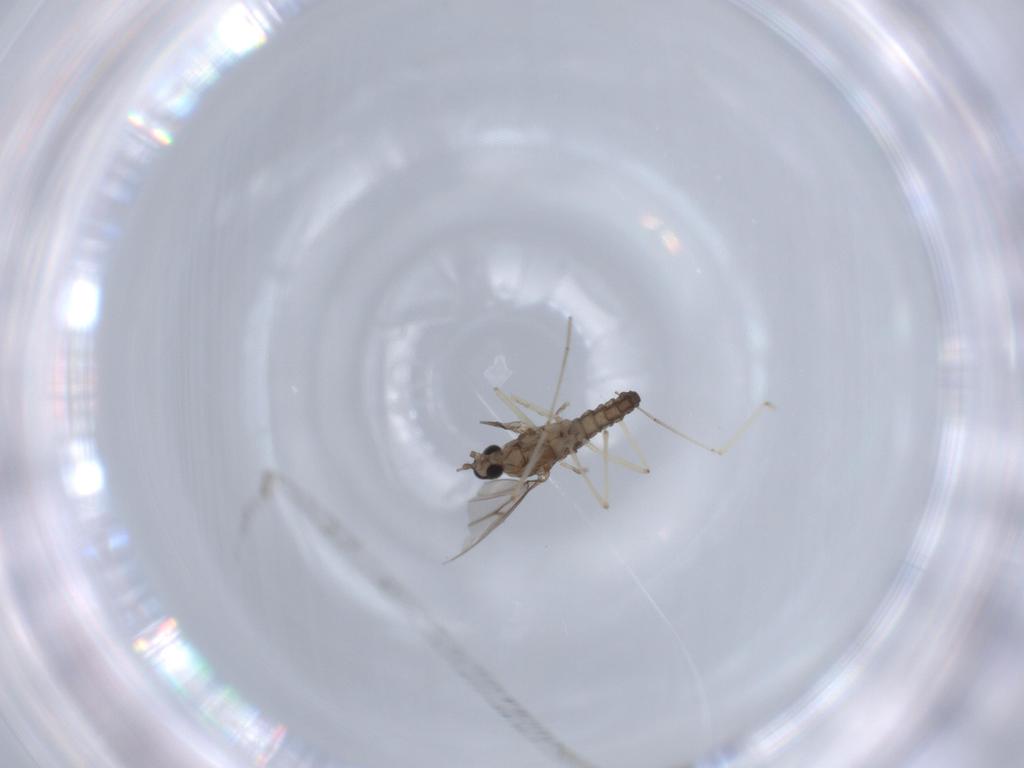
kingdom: Animalia
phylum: Arthropoda
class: Insecta
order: Diptera
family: Cecidomyiidae
